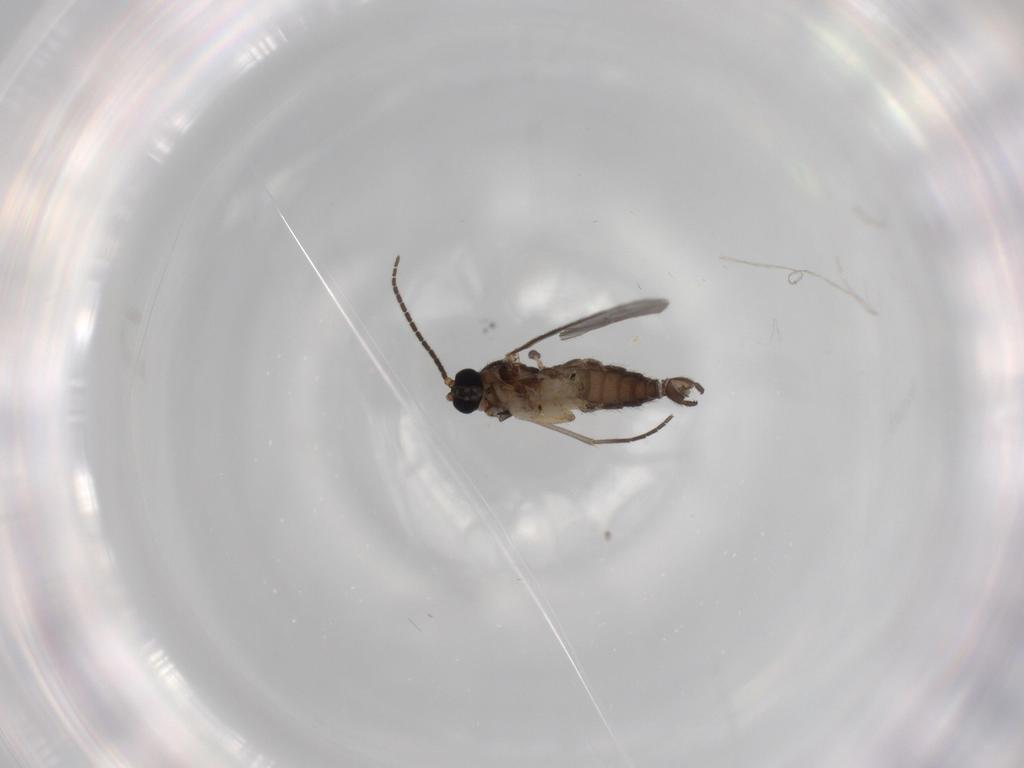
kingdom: Animalia
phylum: Arthropoda
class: Insecta
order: Diptera
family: Sciaridae
